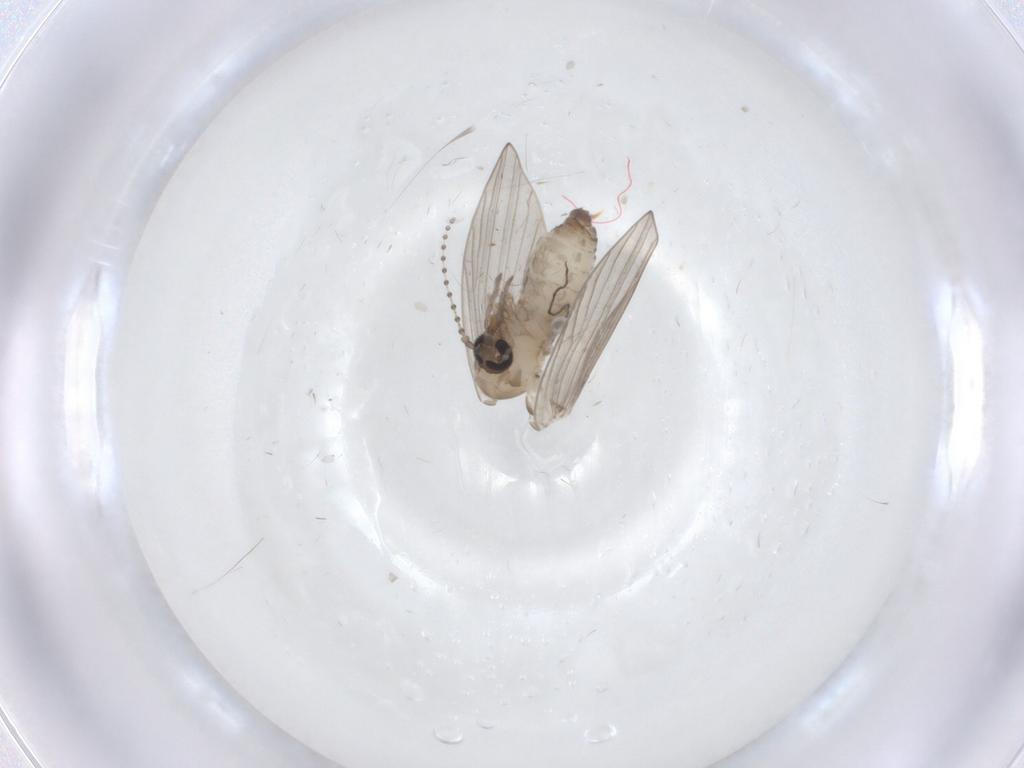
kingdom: Animalia
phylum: Arthropoda
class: Insecta
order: Diptera
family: Psychodidae
